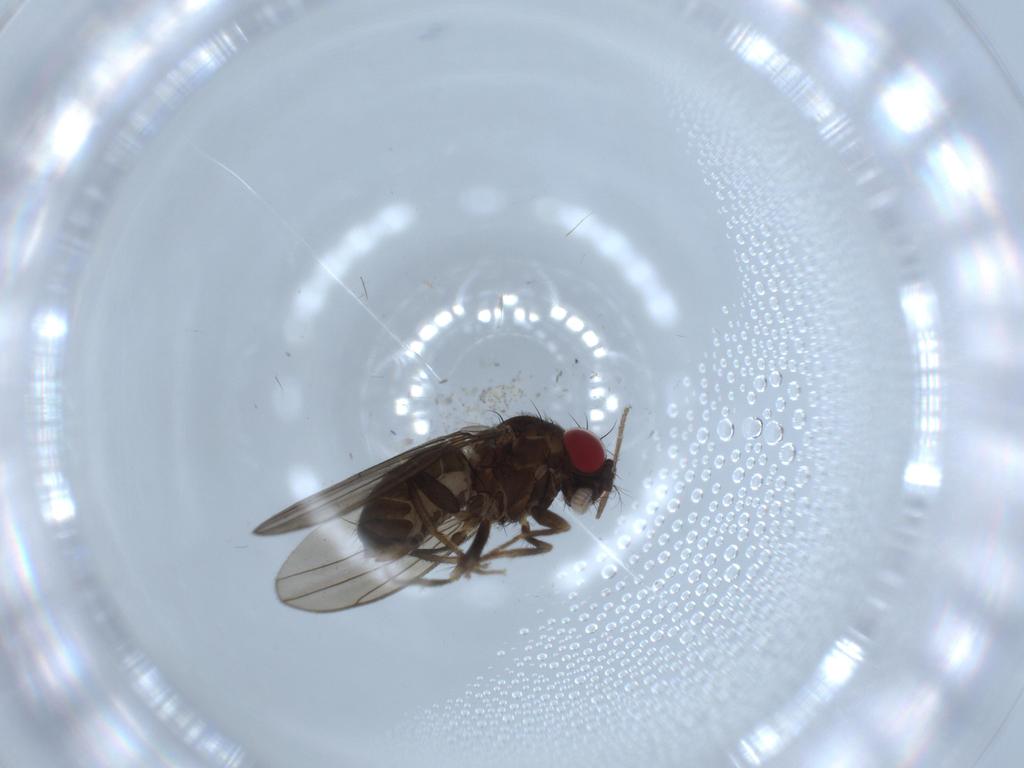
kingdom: Animalia
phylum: Arthropoda
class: Insecta
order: Diptera
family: Drosophilidae
